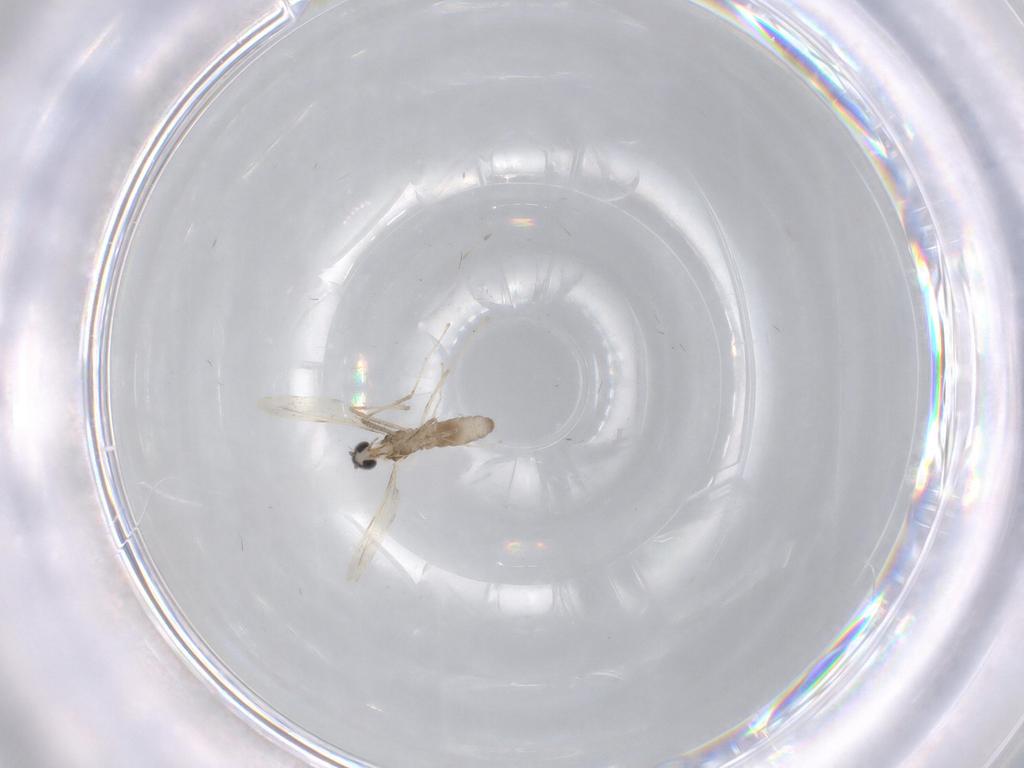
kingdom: Animalia
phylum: Arthropoda
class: Insecta
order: Diptera
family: Cecidomyiidae
